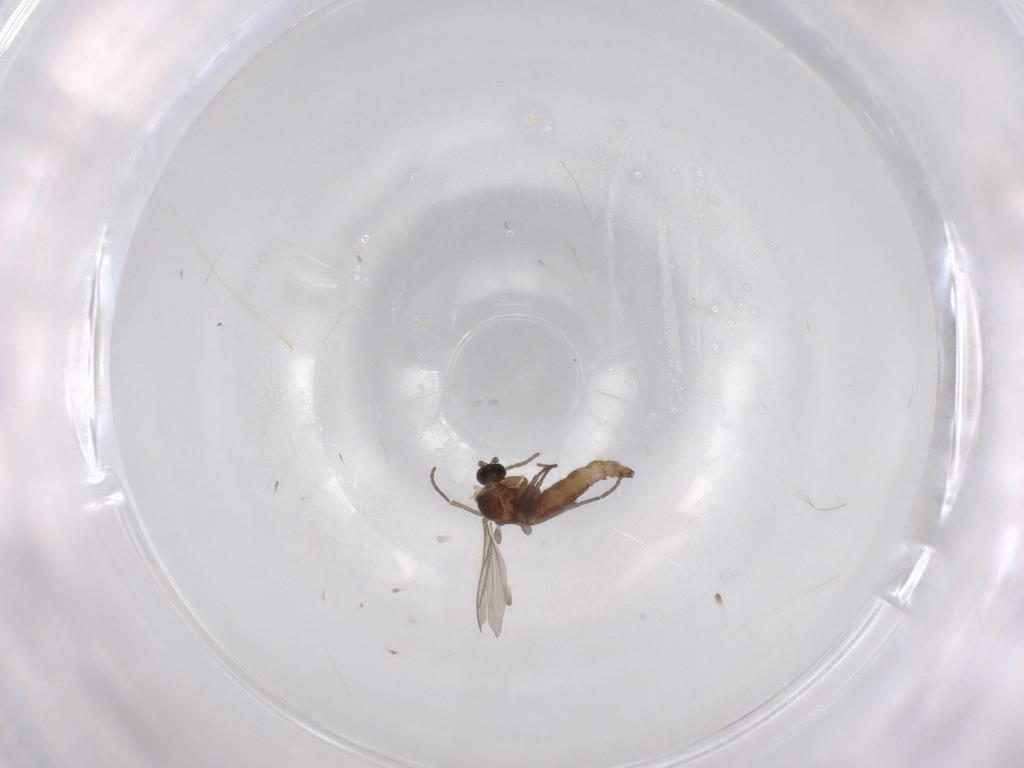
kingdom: Animalia
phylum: Arthropoda
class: Insecta
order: Diptera
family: Cecidomyiidae
